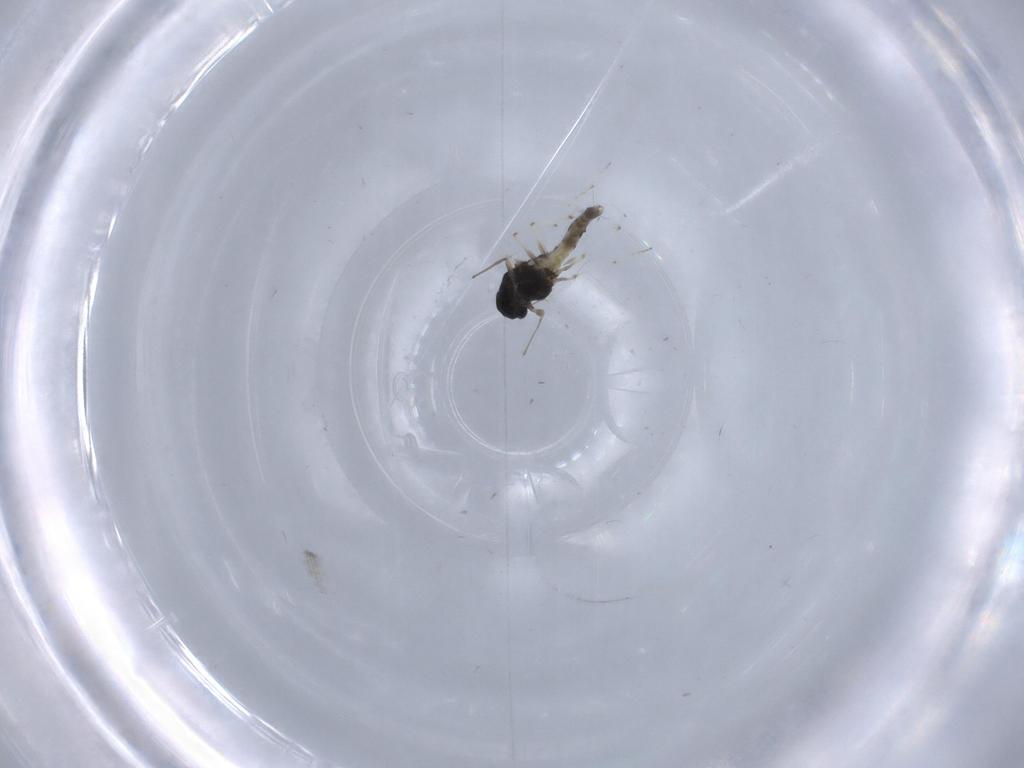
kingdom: Animalia
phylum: Arthropoda
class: Insecta
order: Diptera
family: Chironomidae
